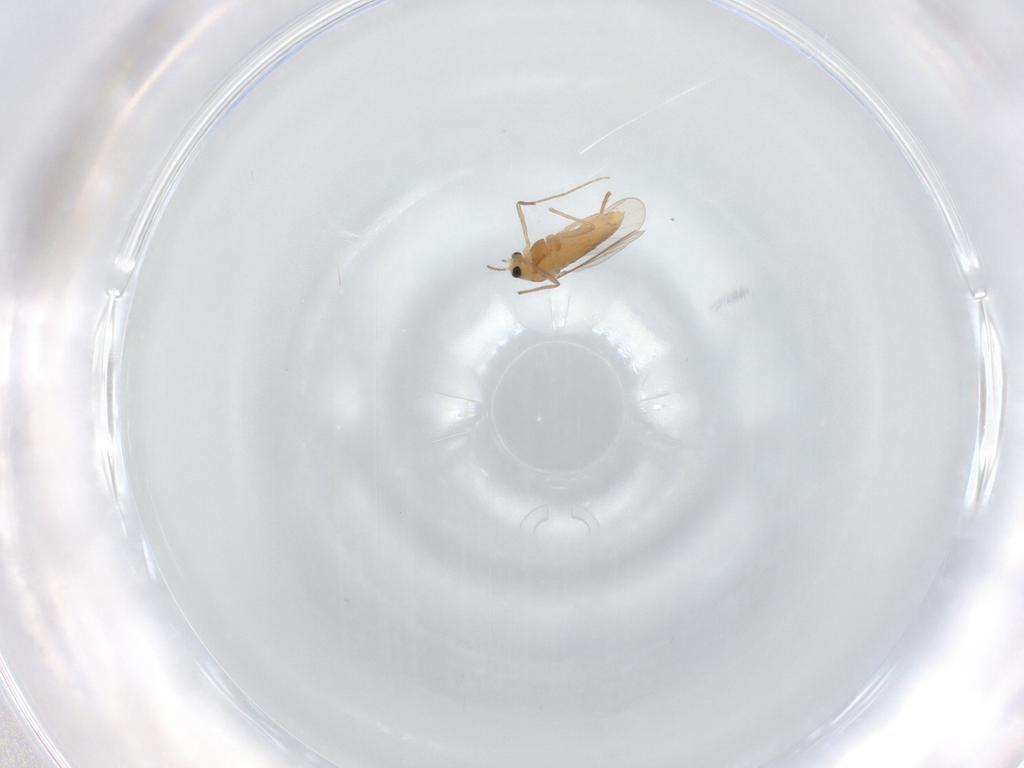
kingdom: Animalia
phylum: Arthropoda
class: Insecta
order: Diptera
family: Chironomidae
